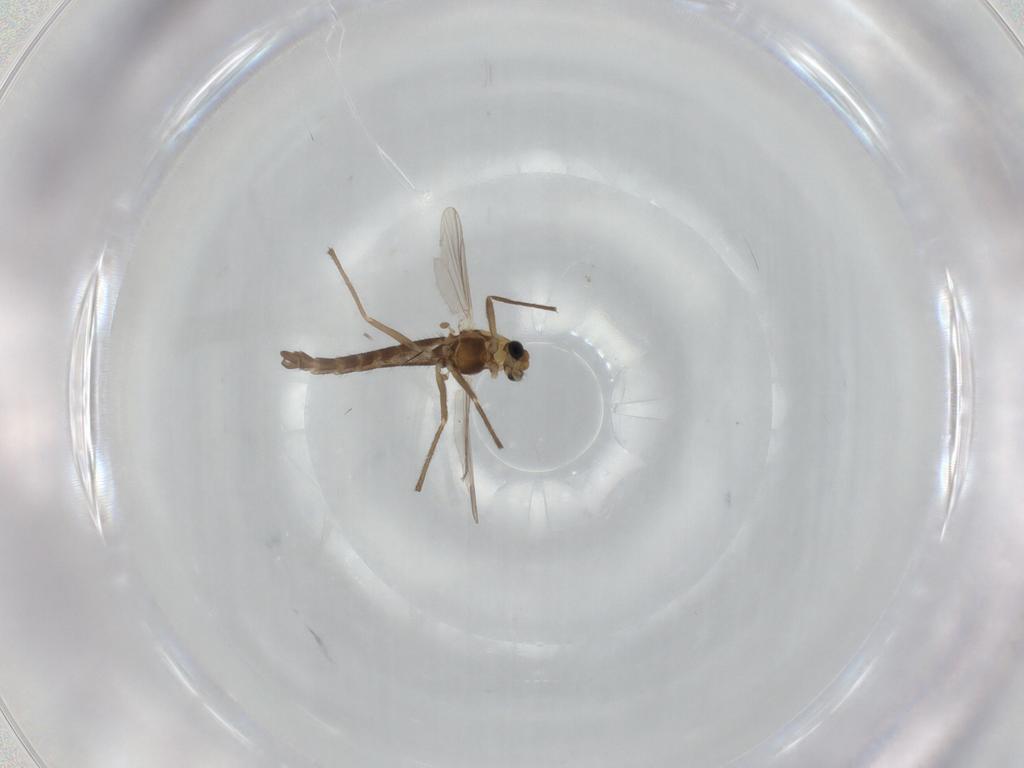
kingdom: Animalia
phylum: Arthropoda
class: Insecta
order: Diptera
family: Chironomidae
